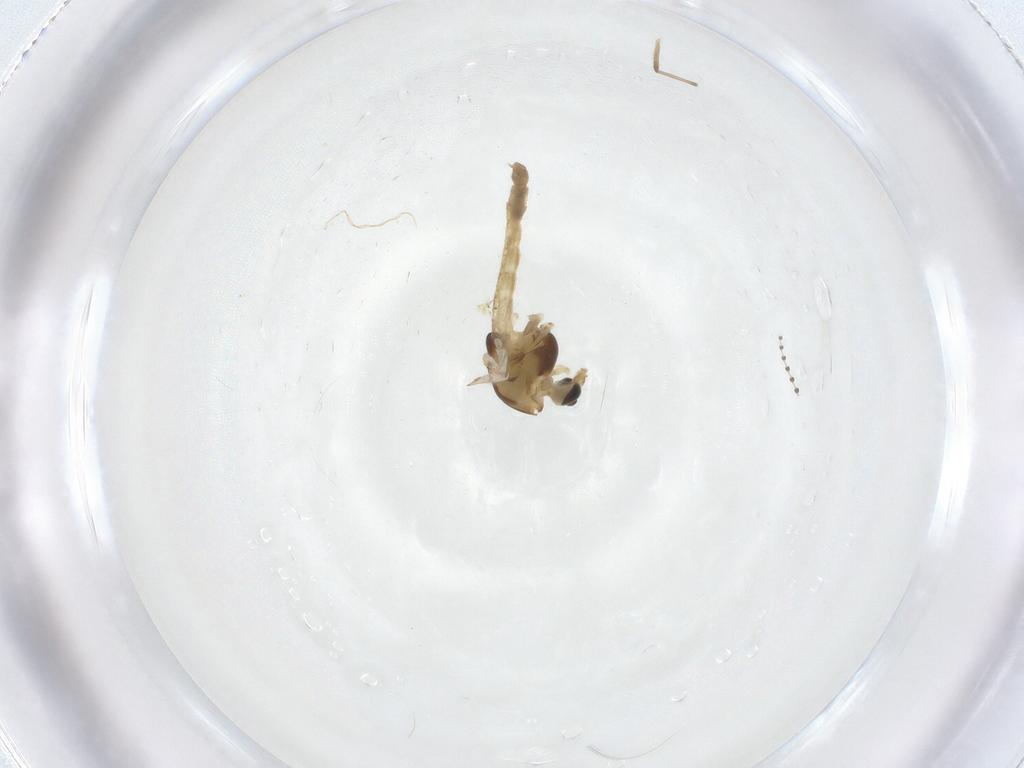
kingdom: Animalia
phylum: Arthropoda
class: Insecta
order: Diptera
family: Chironomidae
